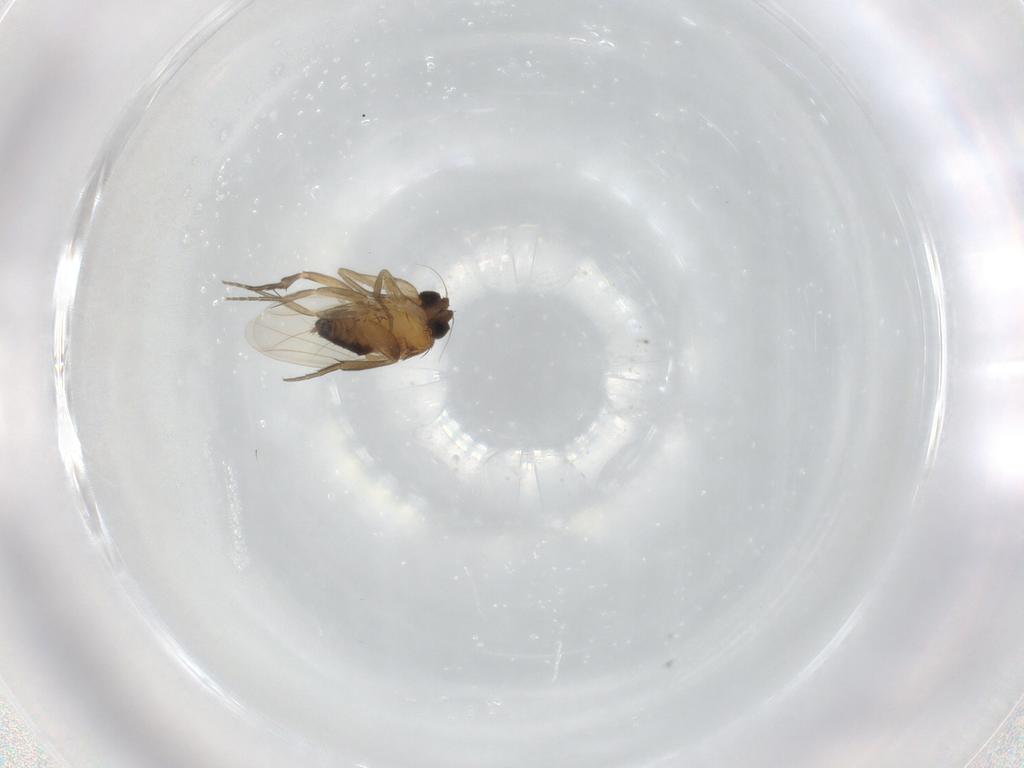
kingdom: Animalia
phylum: Arthropoda
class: Insecta
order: Diptera
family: Phoridae
